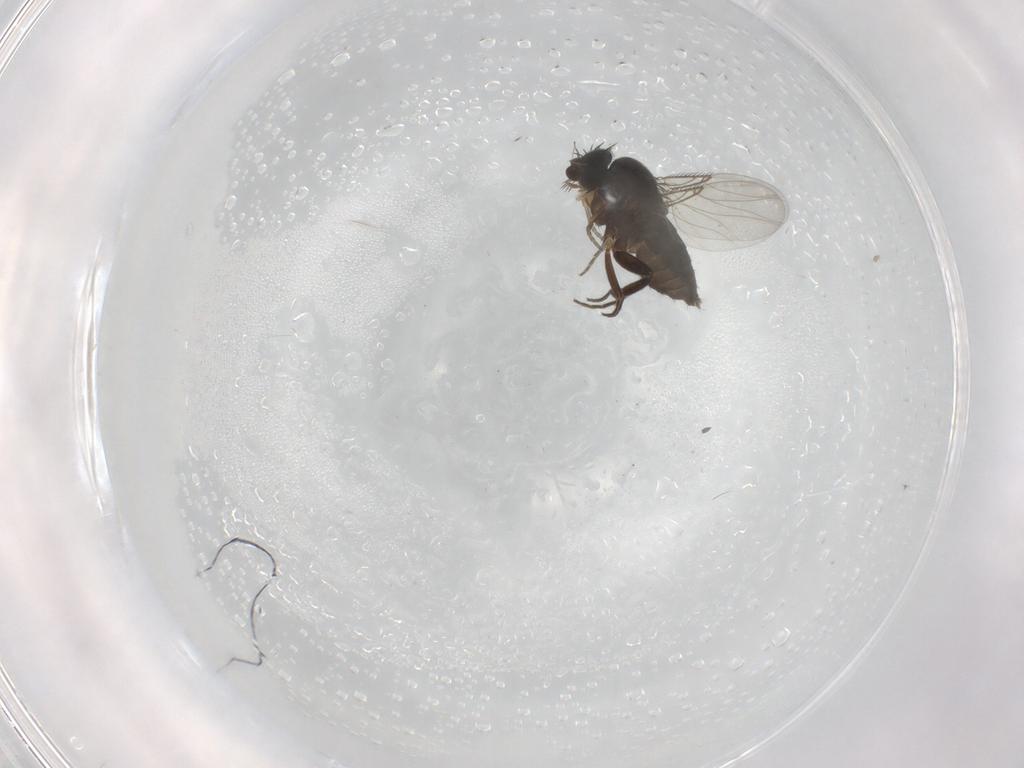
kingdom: Animalia
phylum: Arthropoda
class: Insecta
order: Diptera
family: Phoridae
